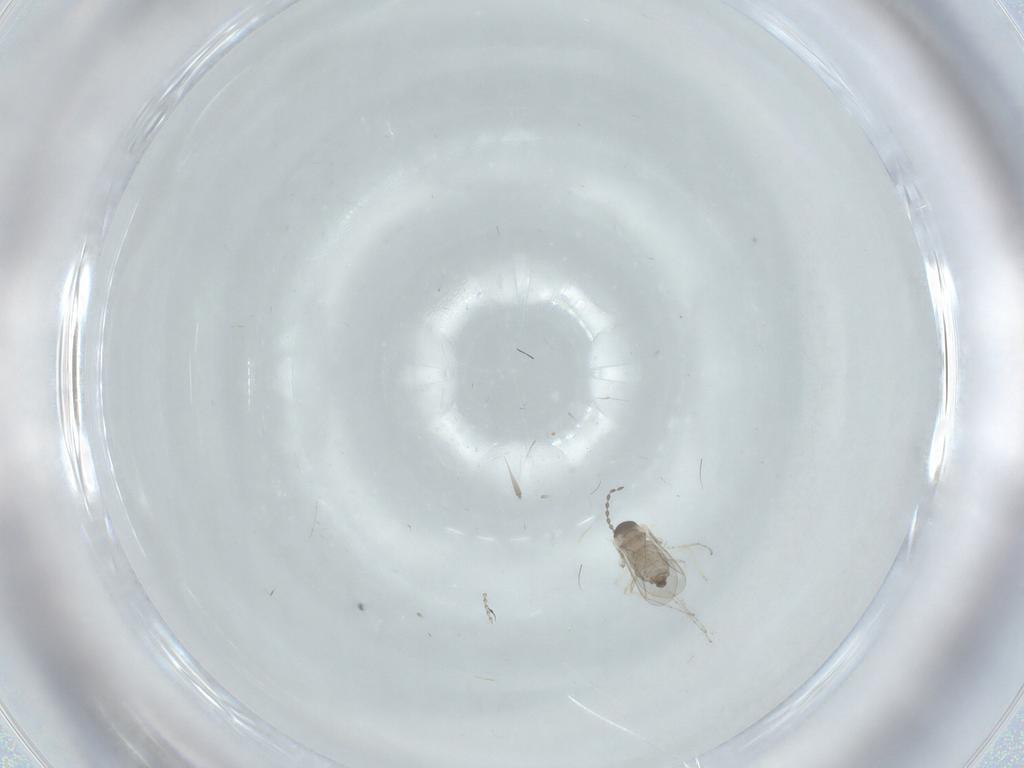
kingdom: Animalia
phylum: Arthropoda
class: Insecta
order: Diptera
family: Cecidomyiidae
